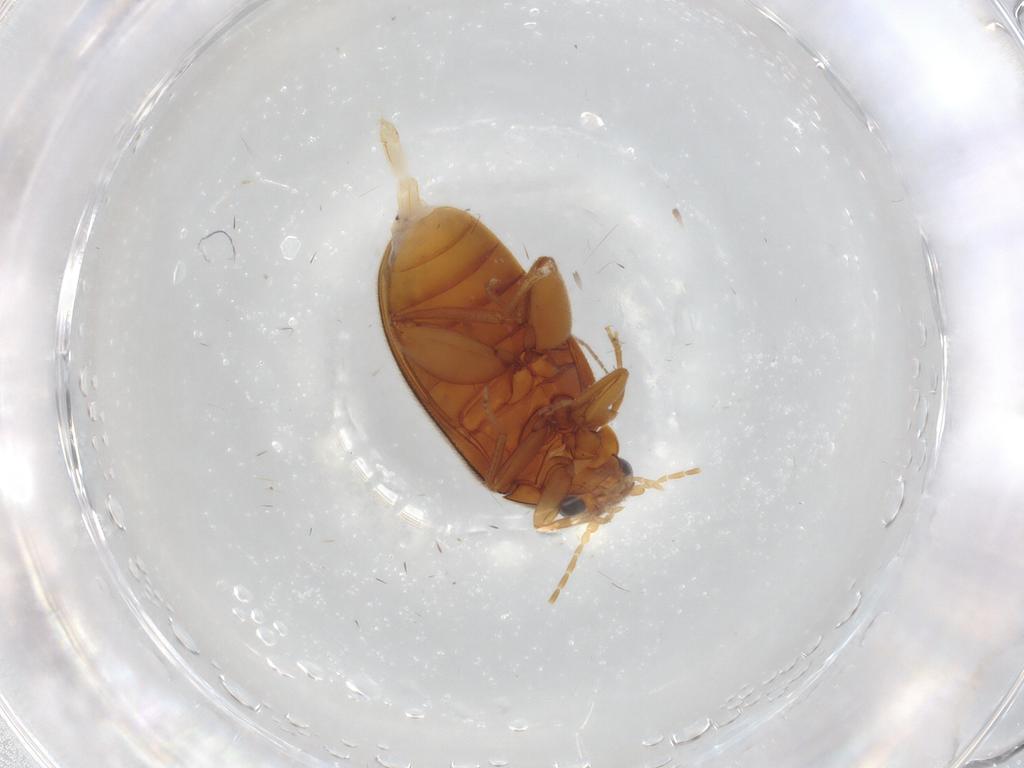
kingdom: Animalia
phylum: Arthropoda
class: Insecta
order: Coleoptera
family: Scirtidae
